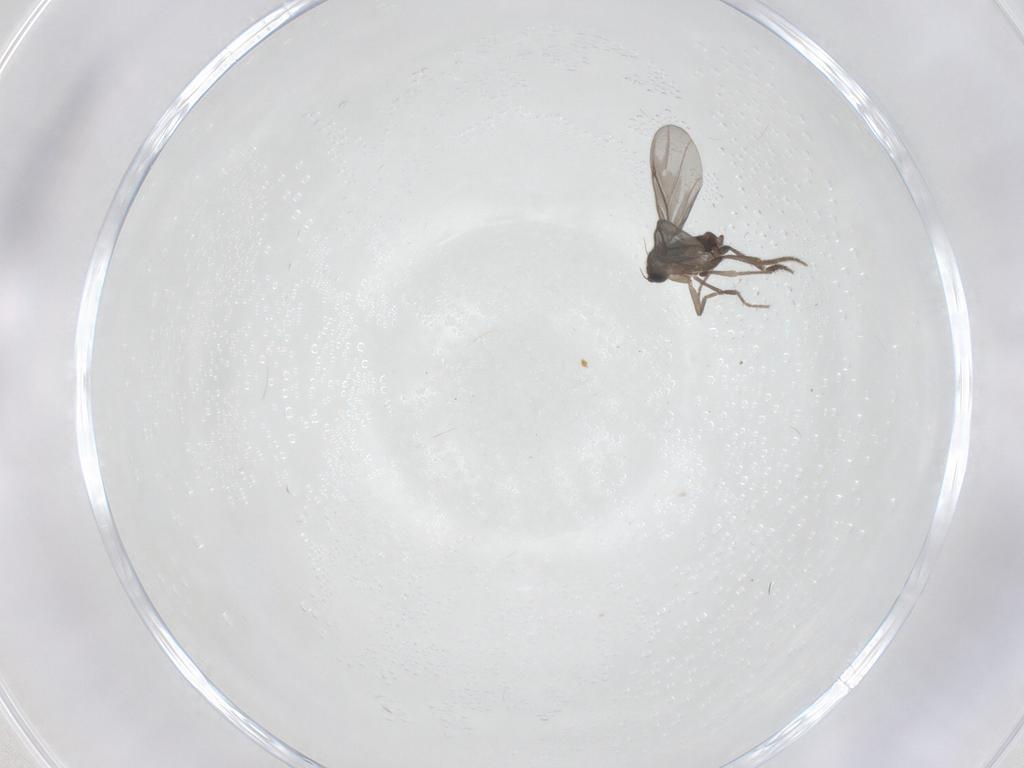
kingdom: Animalia
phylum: Arthropoda
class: Insecta
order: Diptera
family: Phoridae
